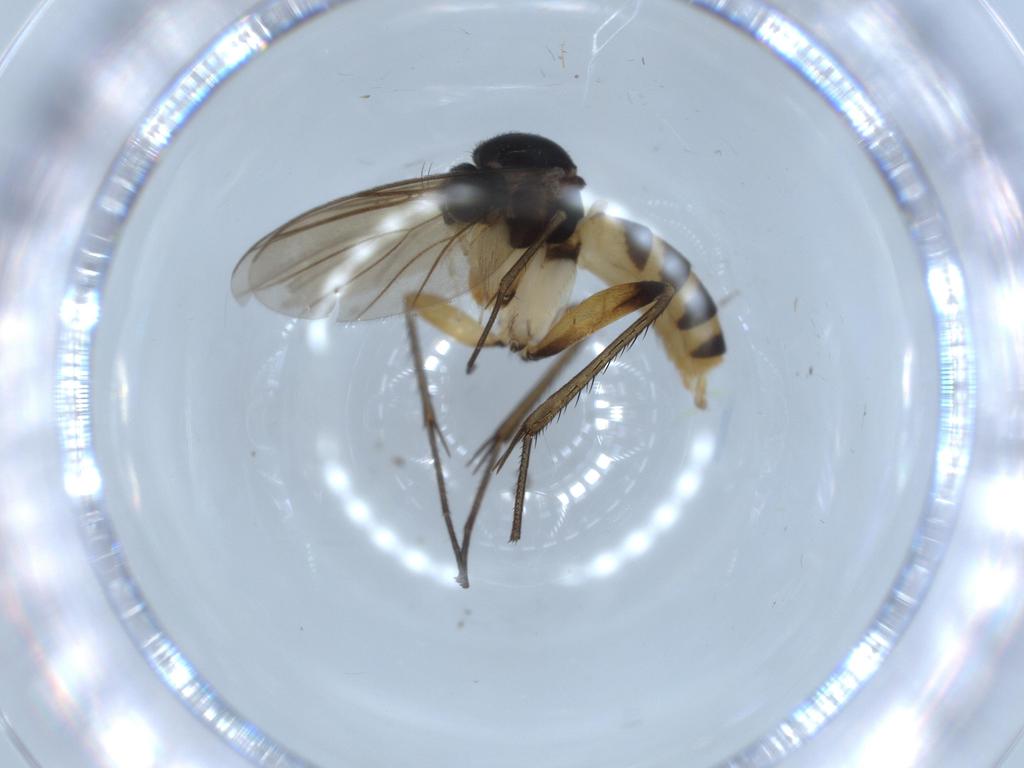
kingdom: Animalia
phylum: Arthropoda
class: Insecta
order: Diptera
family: Mycetophilidae
